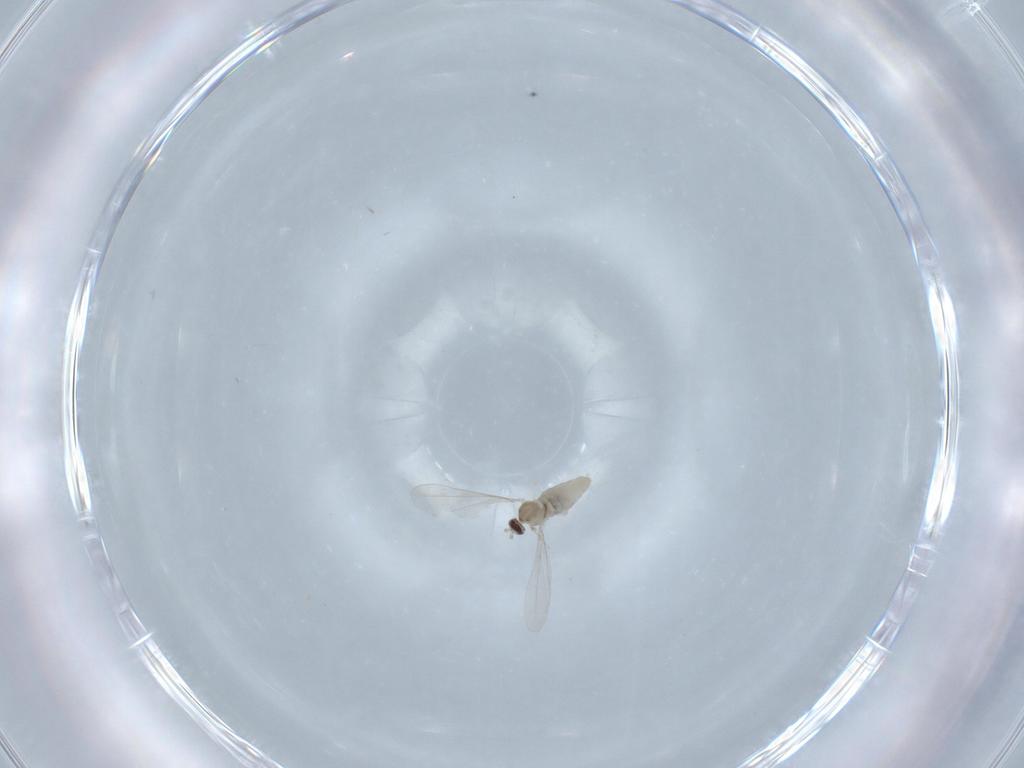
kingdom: Animalia
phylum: Arthropoda
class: Insecta
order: Diptera
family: Cecidomyiidae
